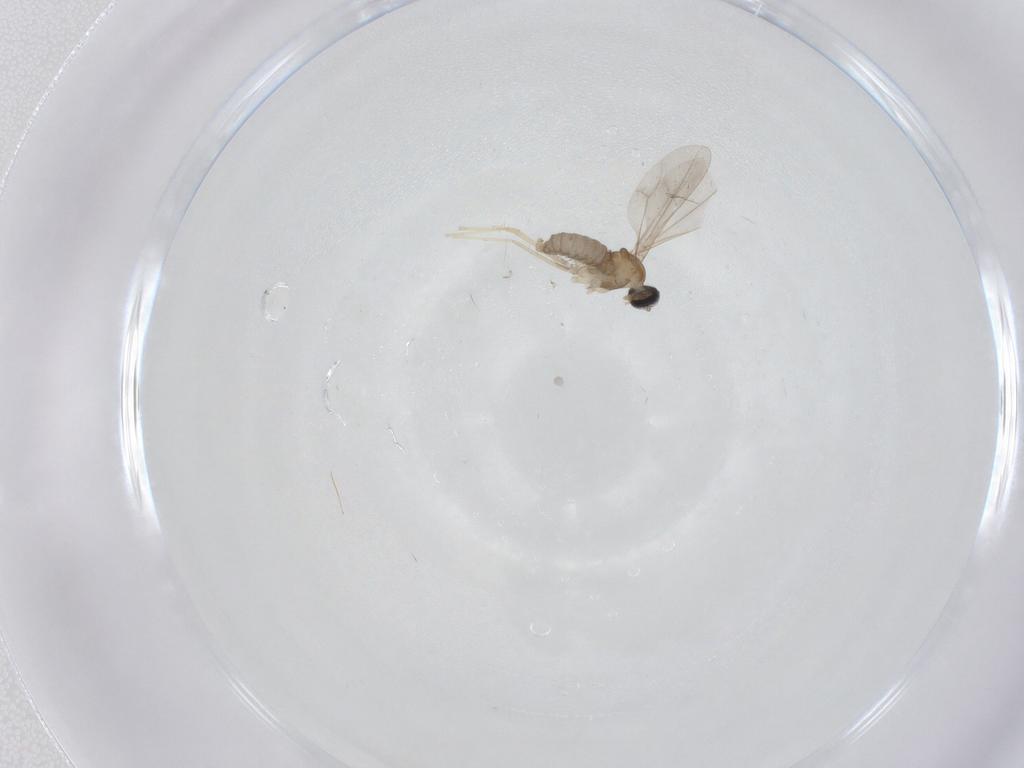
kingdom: Animalia
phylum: Arthropoda
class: Insecta
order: Diptera
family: Cecidomyiidae
